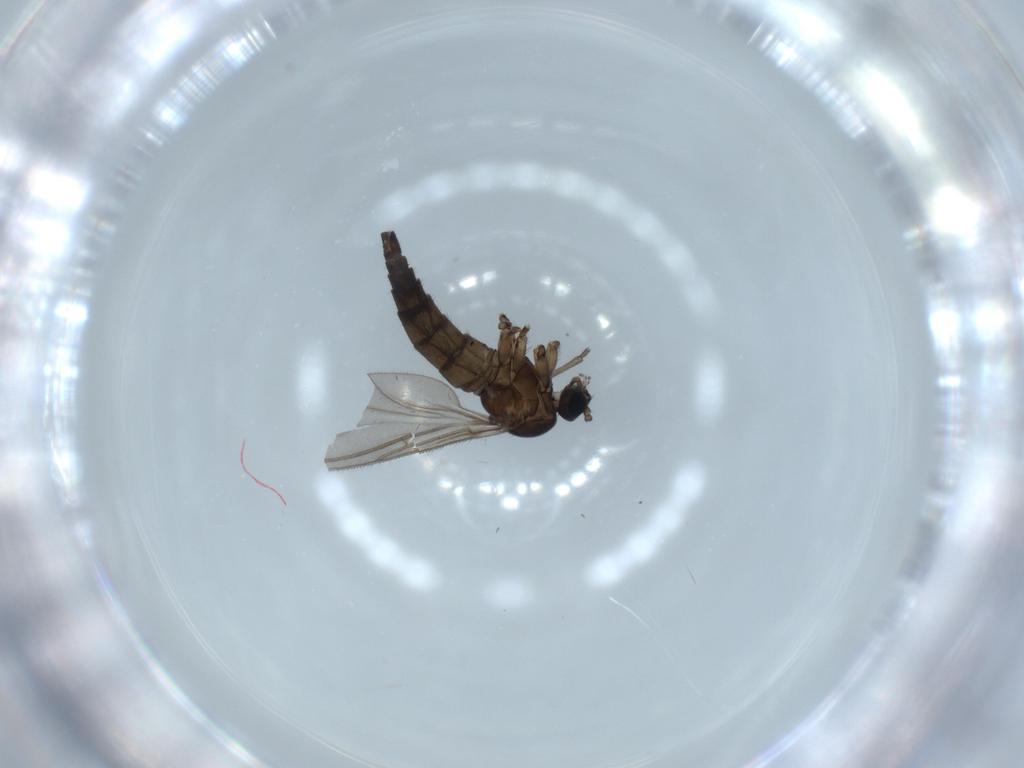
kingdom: Animalia
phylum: Arthropoda
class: Insecta
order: Diptera
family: Sciaridae
